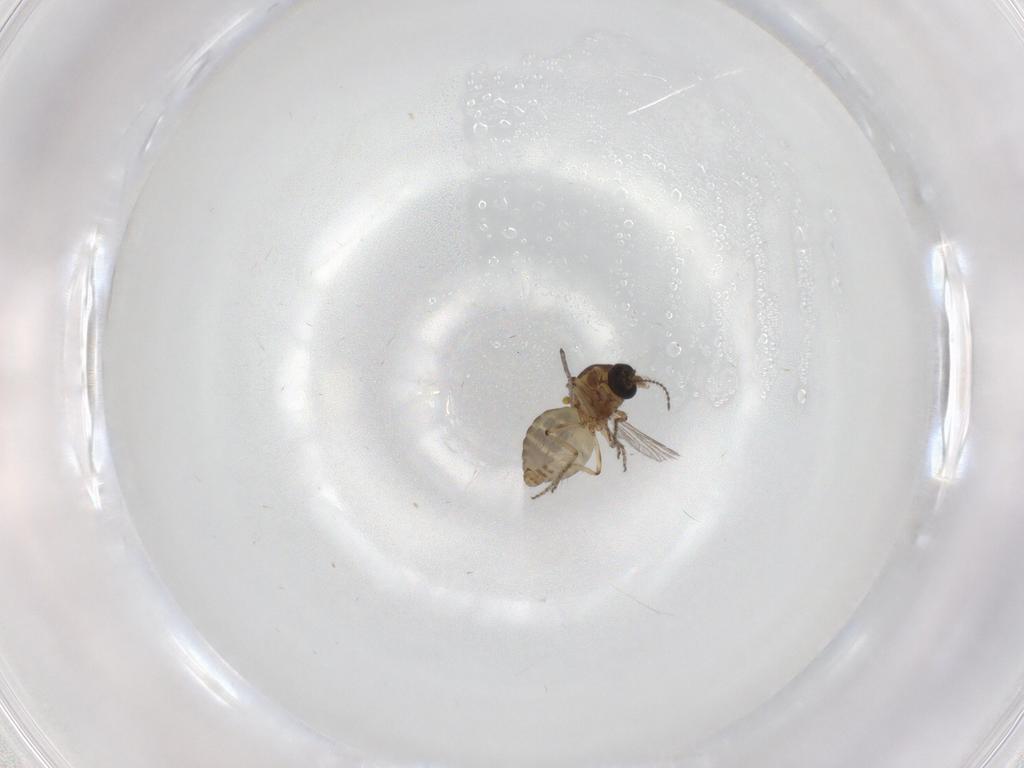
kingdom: Animalia
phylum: Arthropoda
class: Insecta
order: Diptera
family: Ceratopogonidae
